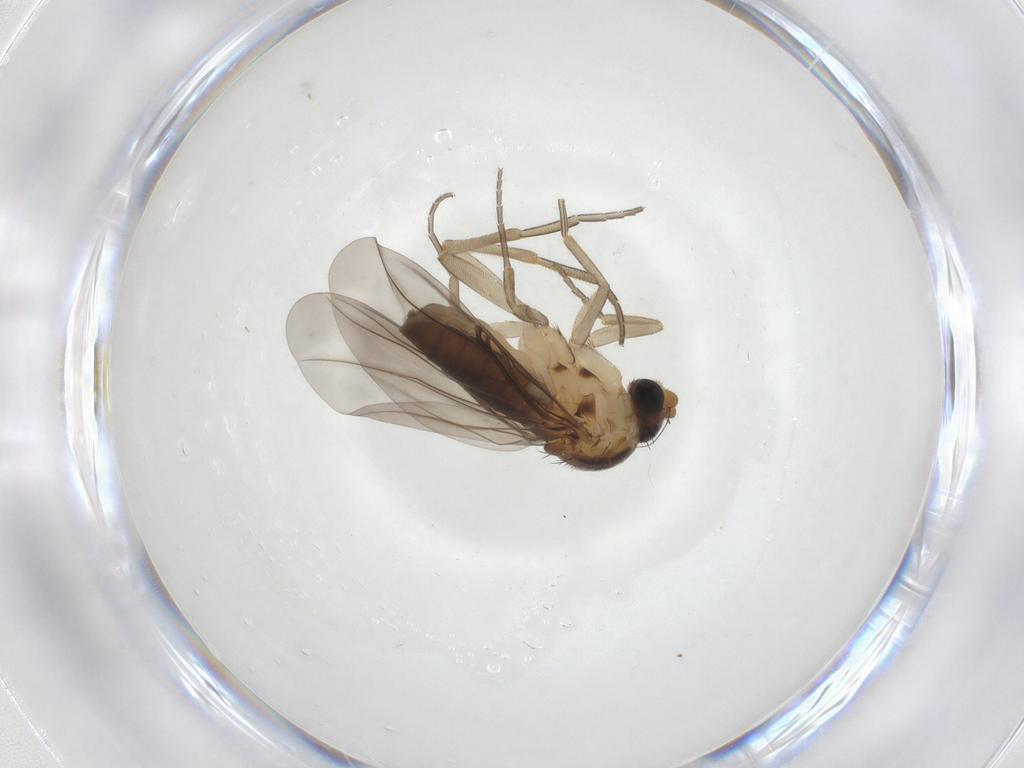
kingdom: Animalia
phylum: Arthropoda
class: Insecta
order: Diptera
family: Phoridae
